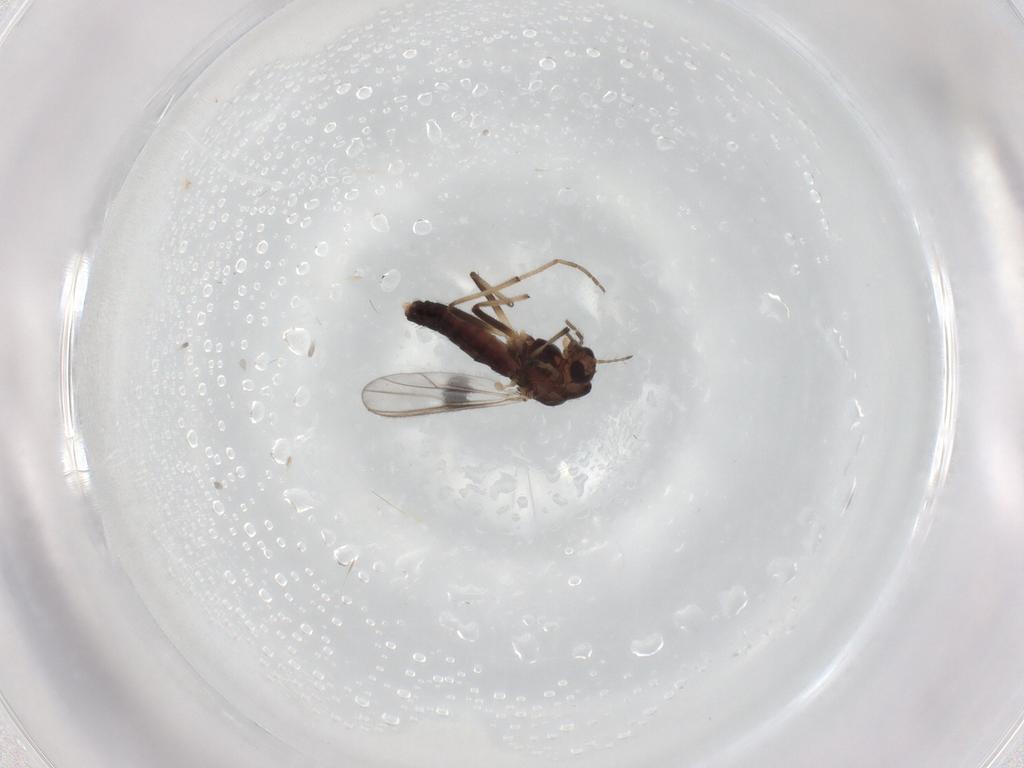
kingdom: Animalia
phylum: Arthropoda
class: Insecta
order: Diptera
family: Chironomidae
